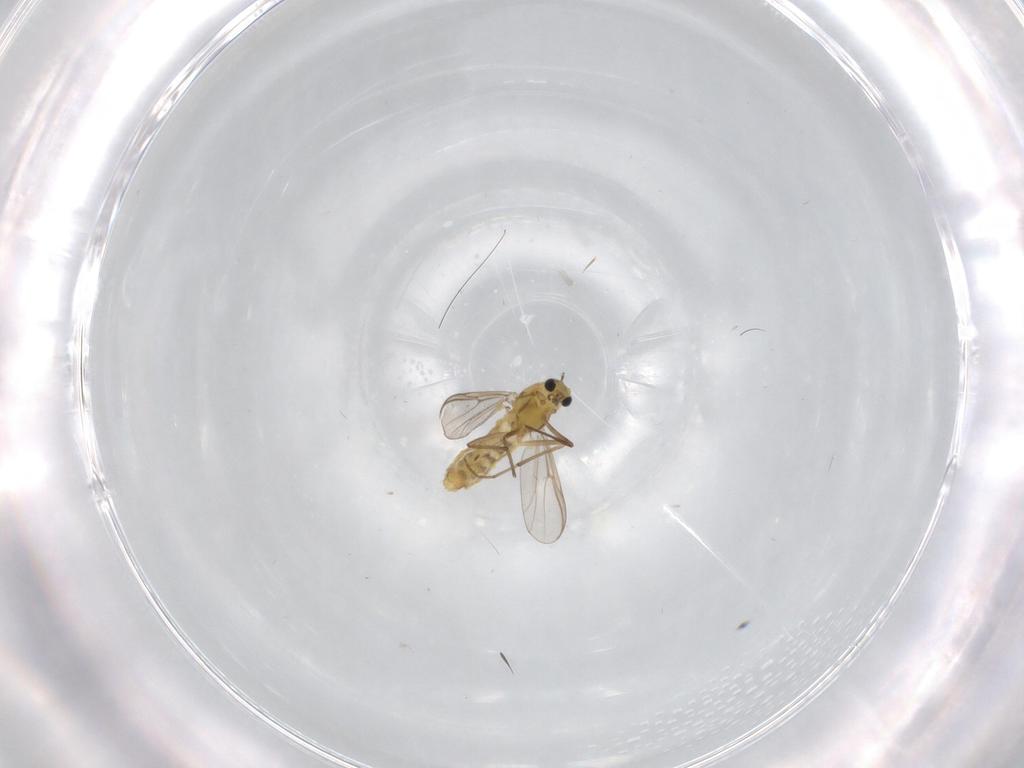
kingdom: Animalia
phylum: Arthropoda
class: Insecta
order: Diptera
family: Chironomidae
